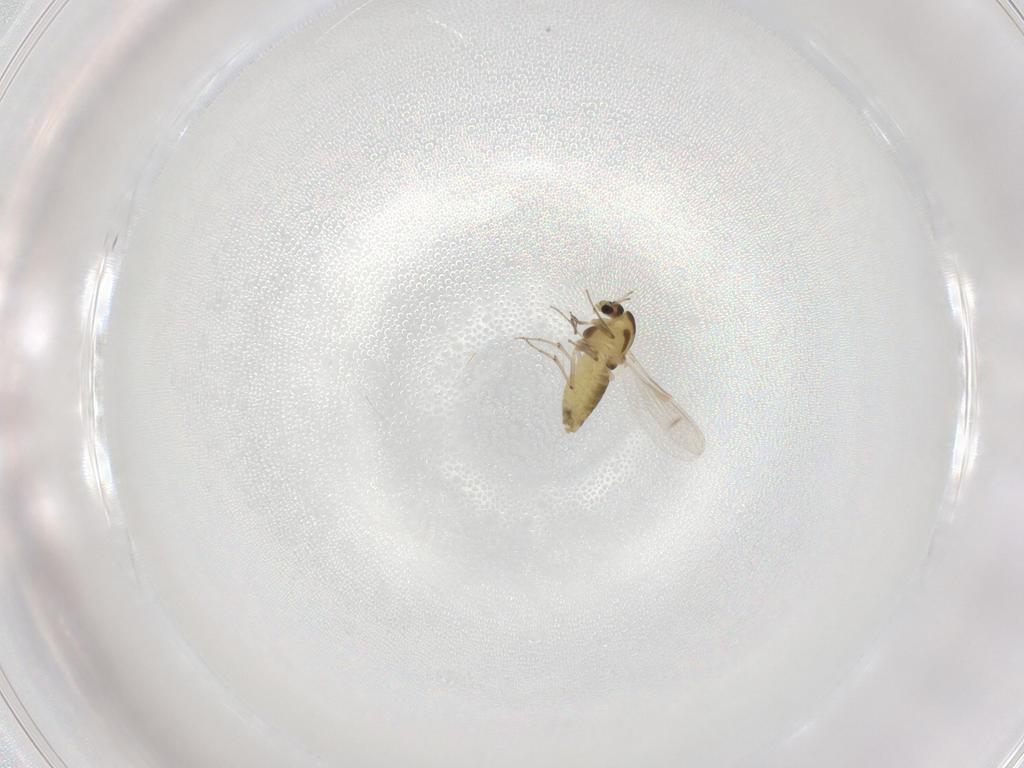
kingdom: Animalia
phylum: Arthropoda
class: Insecta
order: Diptera
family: Chironomidae
